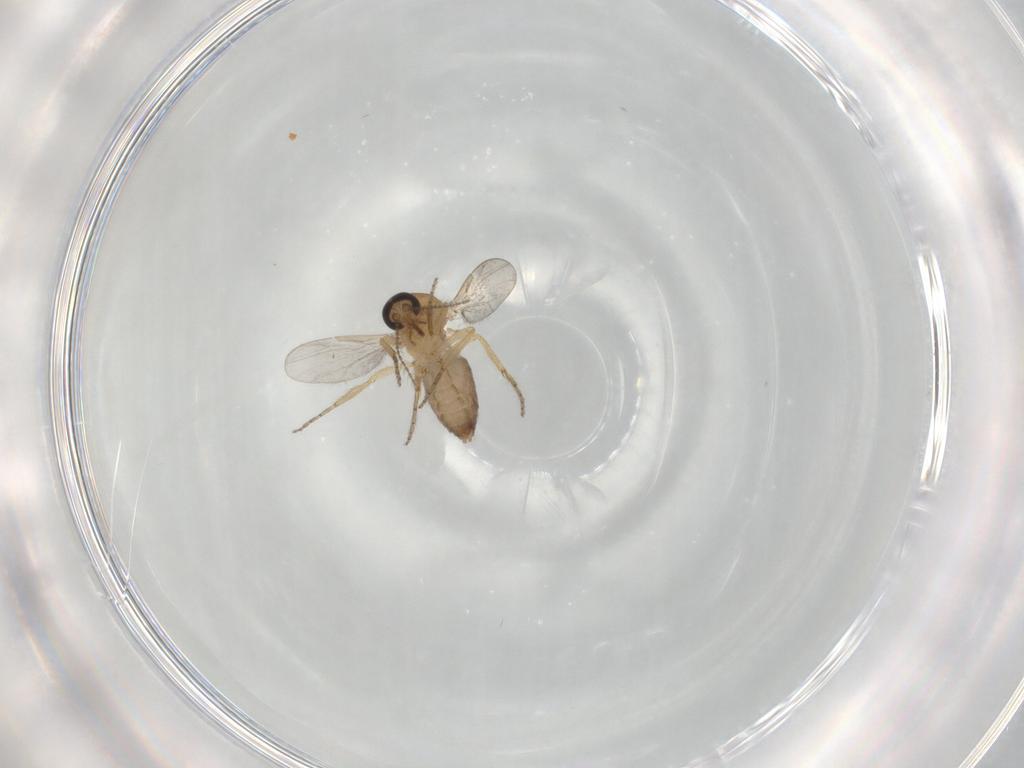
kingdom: Animalia
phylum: Arthropoda
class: Insecta
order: Diptera
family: Ceratopogonidae
